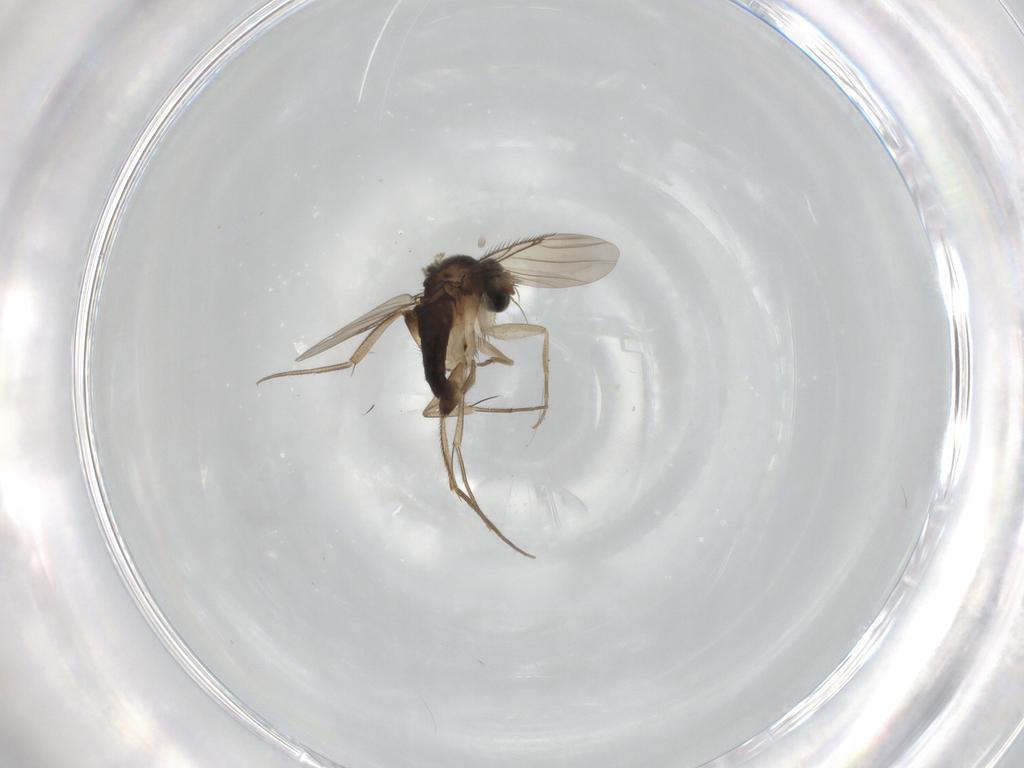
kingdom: Animalia
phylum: Arthropoda
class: Insecta
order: Diptera
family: Phoridae
